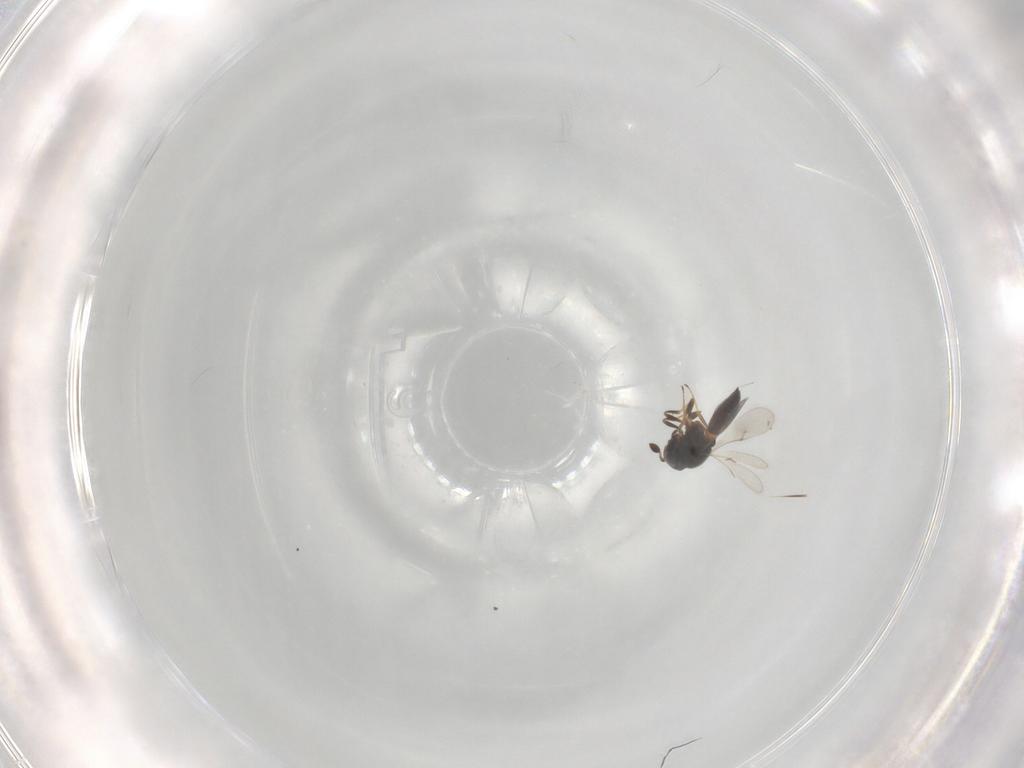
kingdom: Animalia
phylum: Arthropoda
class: Insecta
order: Hymenoptera
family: Scelionidae
